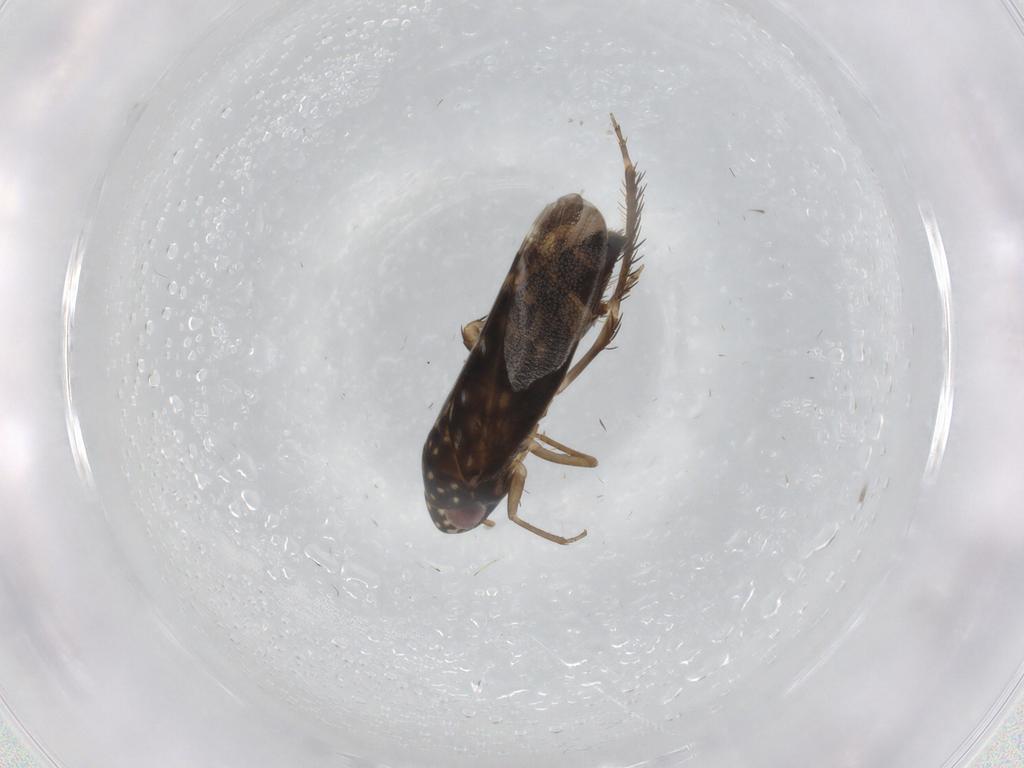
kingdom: Animalia
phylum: Arthropoda
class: Insecta
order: Hemiptera
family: Cicadellidae
